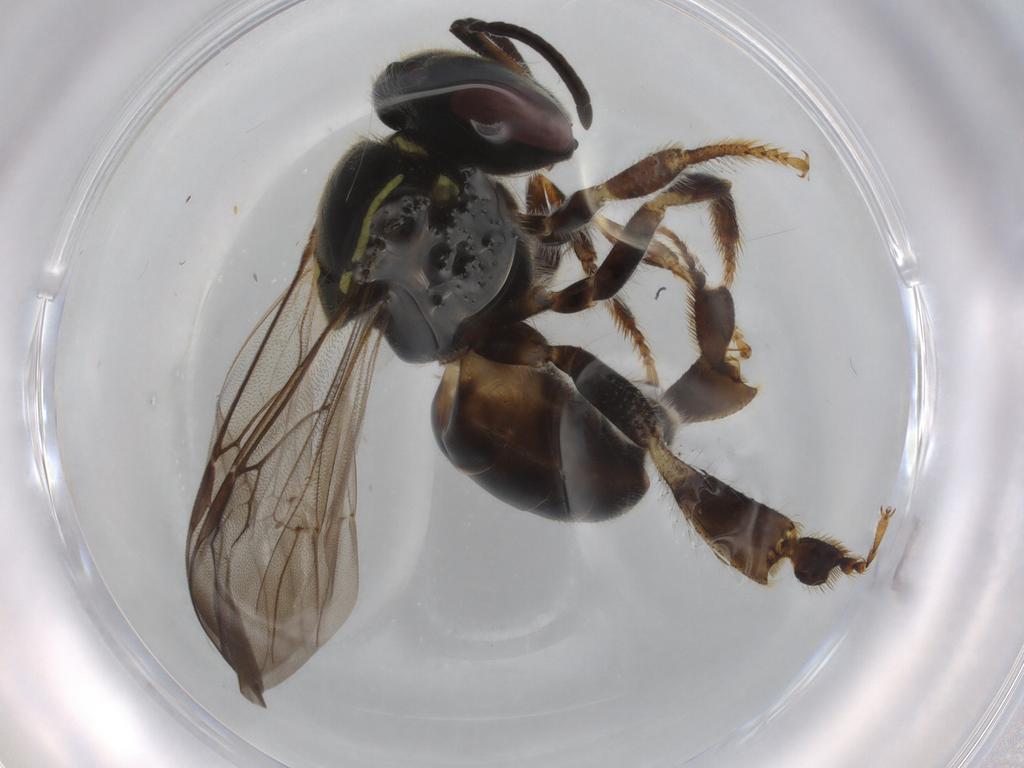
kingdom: Animalia
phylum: Arthropoda
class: Insecta
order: Hymenoptera
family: Apidae
